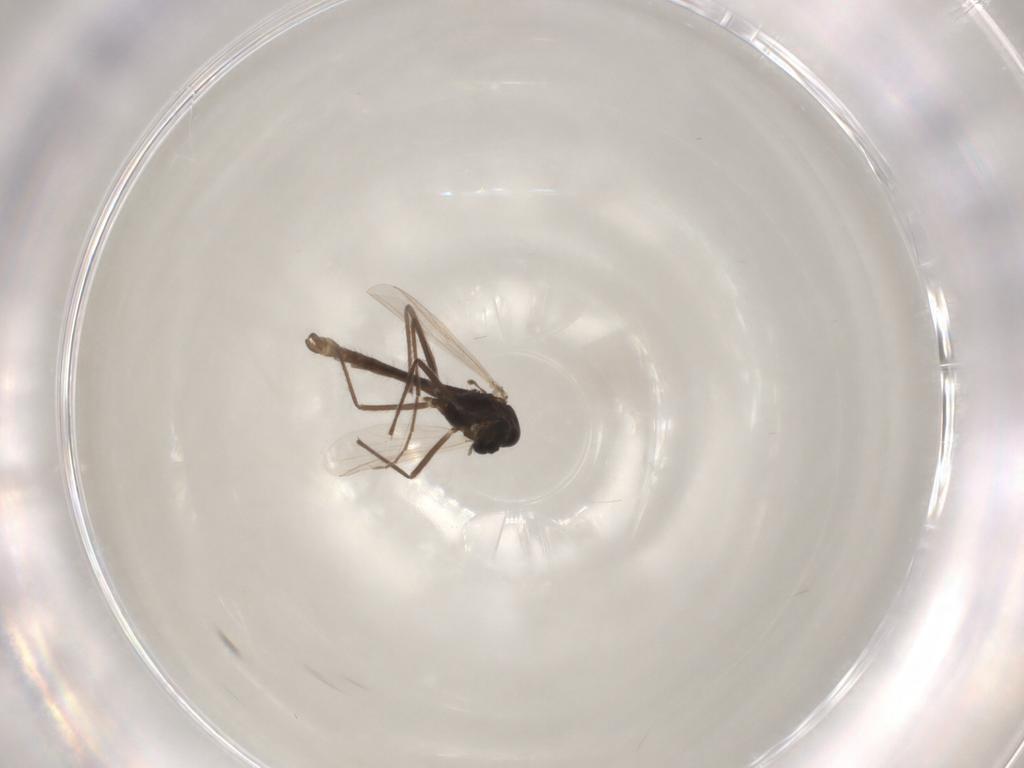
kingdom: Animalia
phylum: Arthropoda
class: Insecta
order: Diptera
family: Chironomidae
